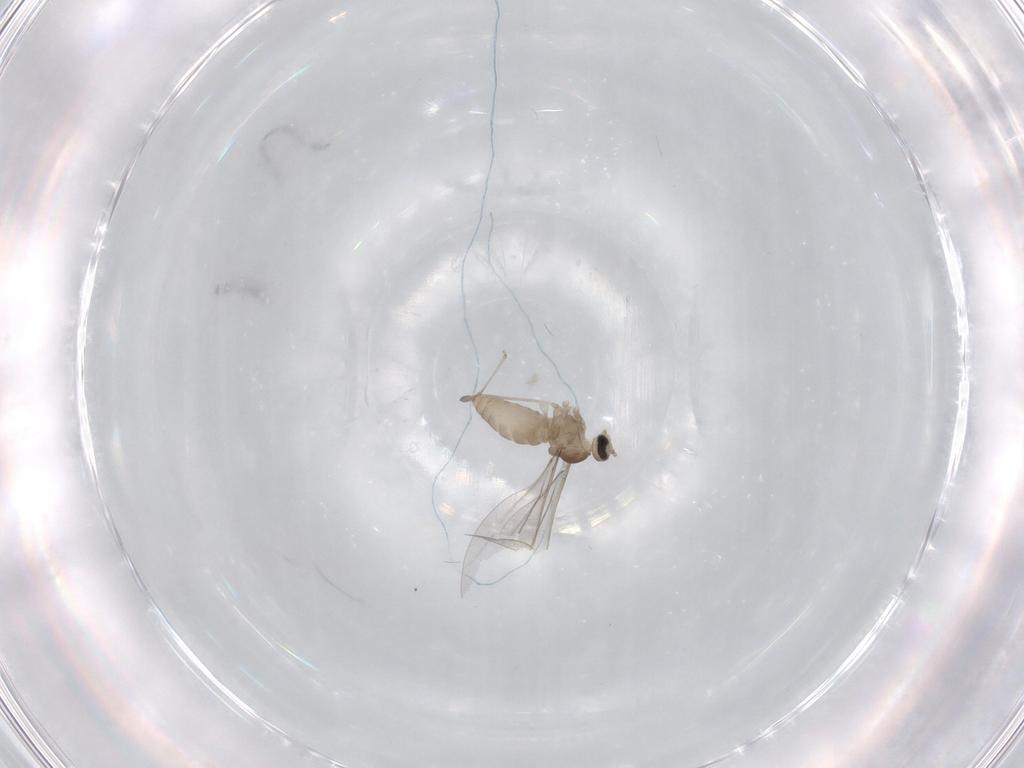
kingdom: Animalia
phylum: Arthropoda
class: Insecta
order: Diptera
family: Cecidomyiidae
